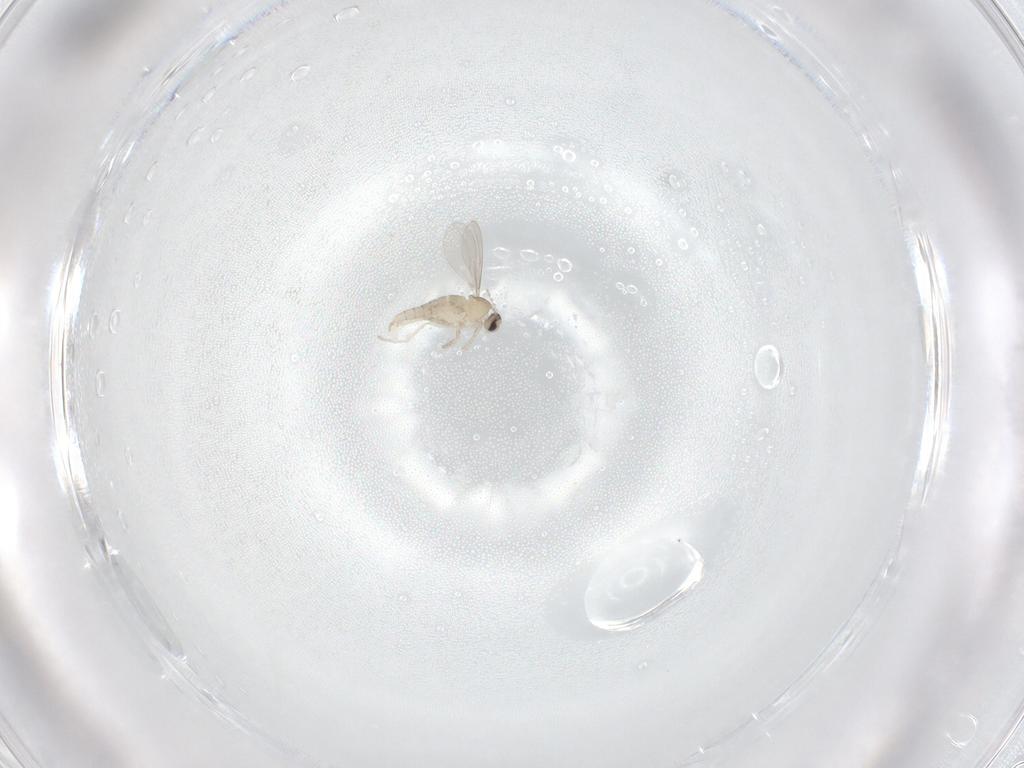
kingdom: Animalia
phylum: Arthropoda
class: Insecta
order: Diptera
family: Cecidomyiidae
